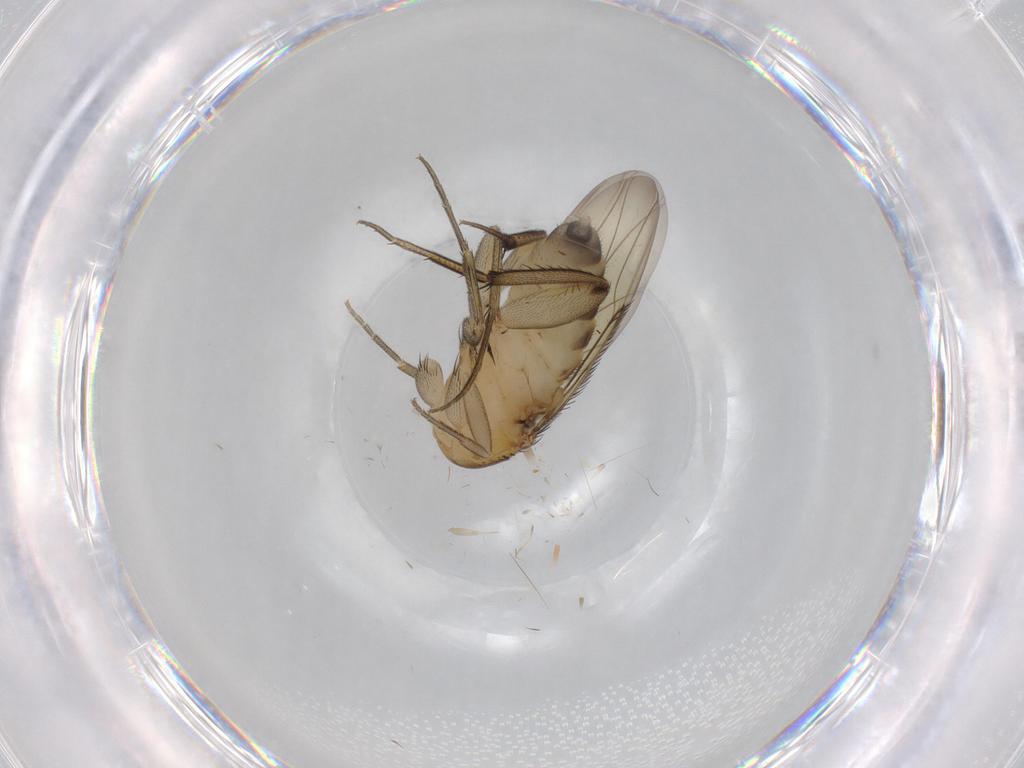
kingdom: Animalia
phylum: Arthropoda
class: Insecta
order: Diptera
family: Phoridae
